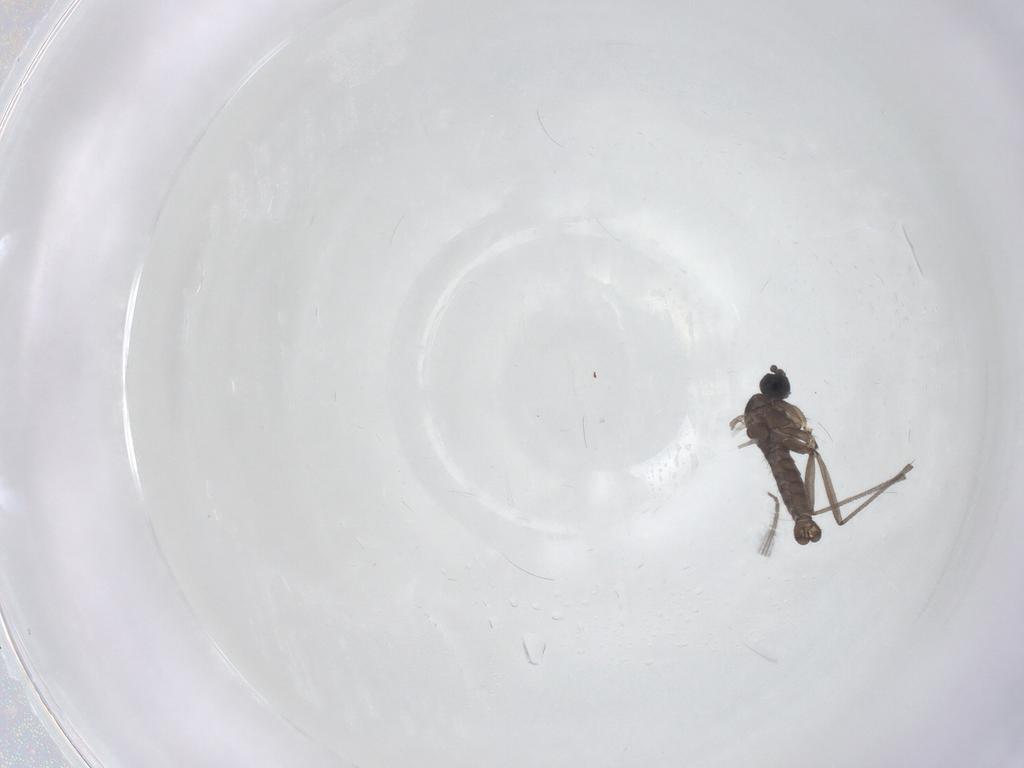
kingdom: Animalia
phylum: Arthropoda
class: Insecta
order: Diptera
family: Sciaridae
